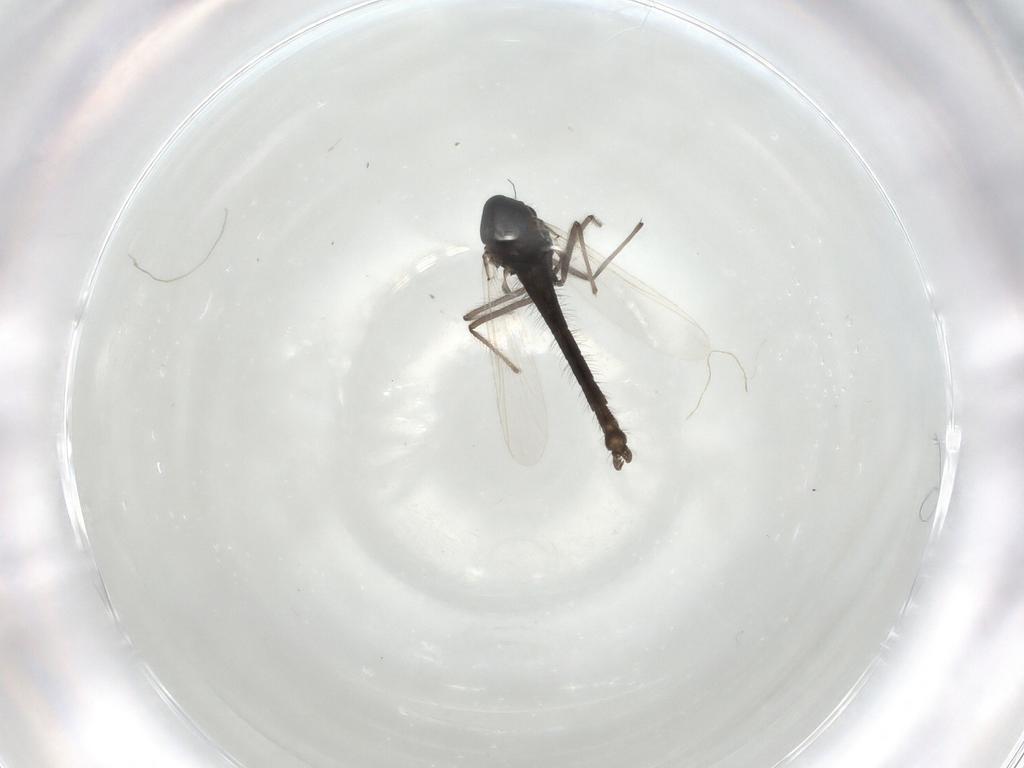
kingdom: Animalia
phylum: Arthropoda
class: Insecta
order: Diptera
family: Chironomidae
